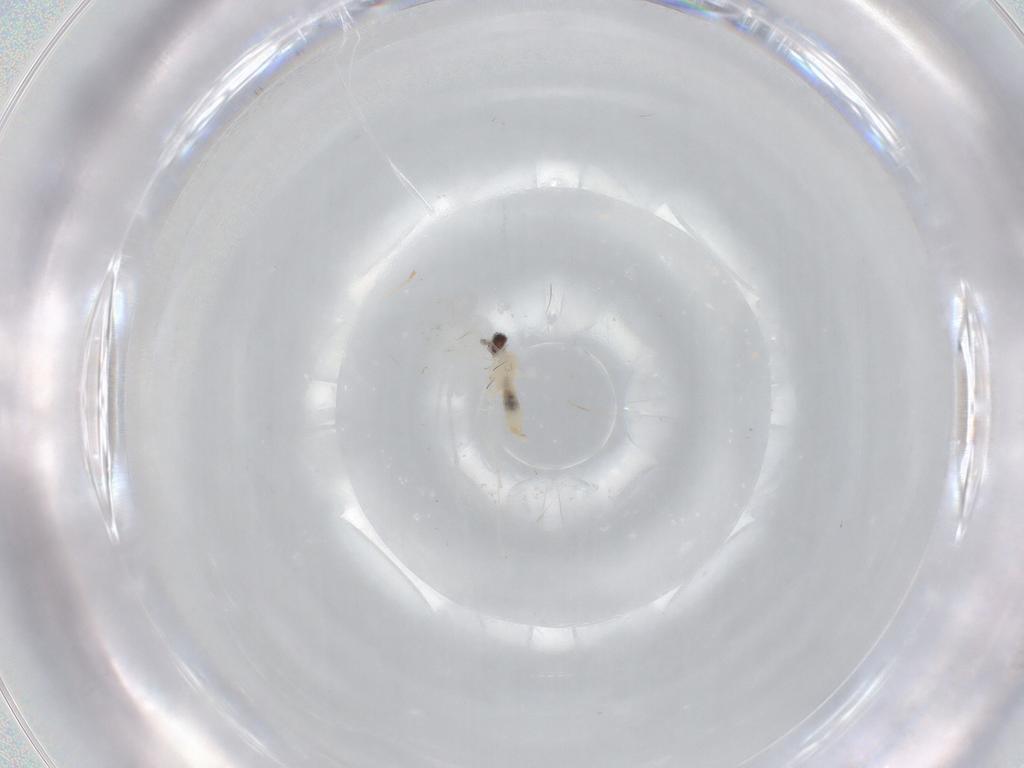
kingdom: Animalia
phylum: Arthropoda
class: Insecta
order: Diptera
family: Cecidomyiidae
